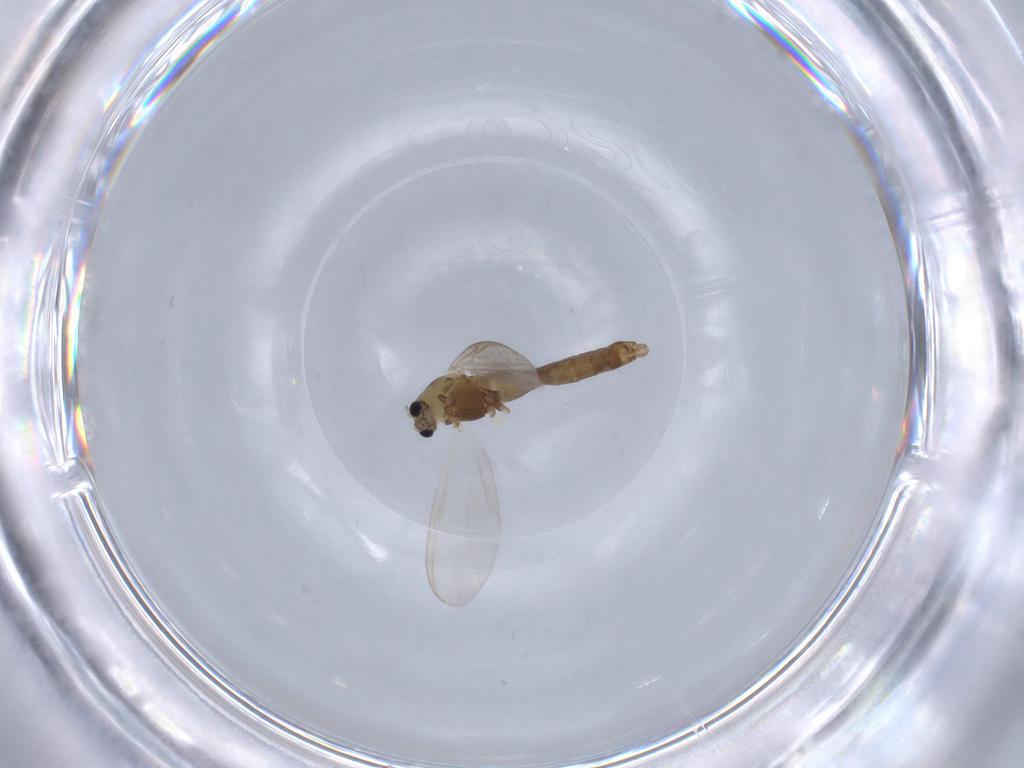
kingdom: Animalia
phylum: Arthropoda
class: Insecta
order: Diptera
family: Chironomidae
